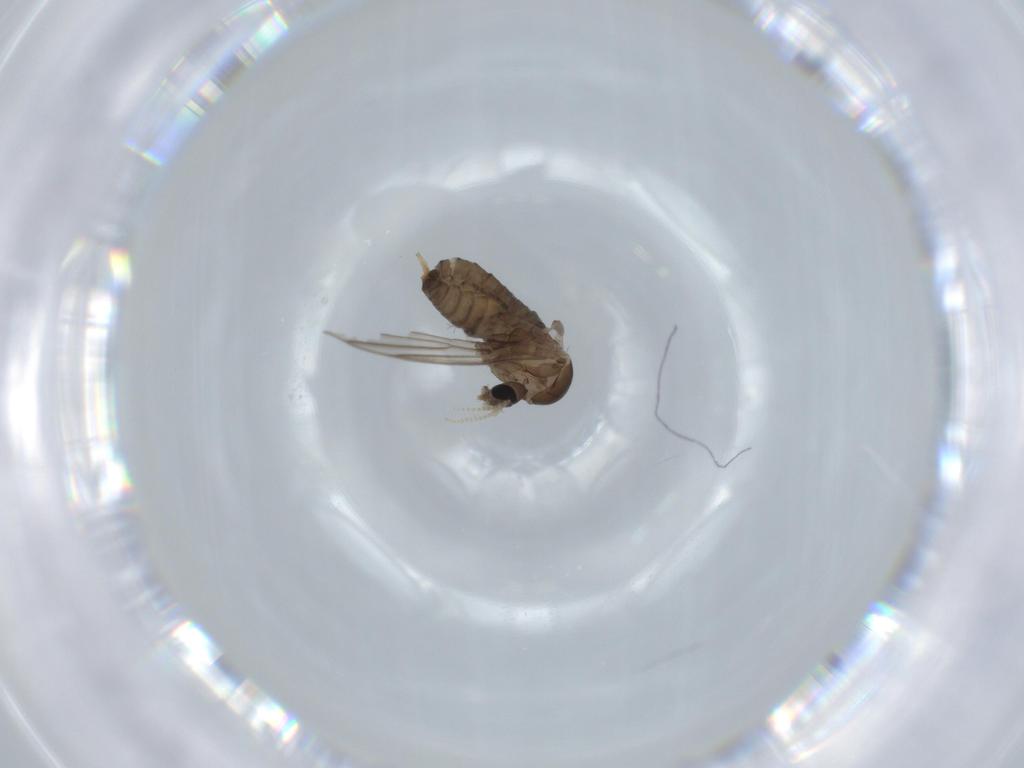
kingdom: Animalia
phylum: Arthropoda
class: Insecta
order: Diptera
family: Psychodidae
